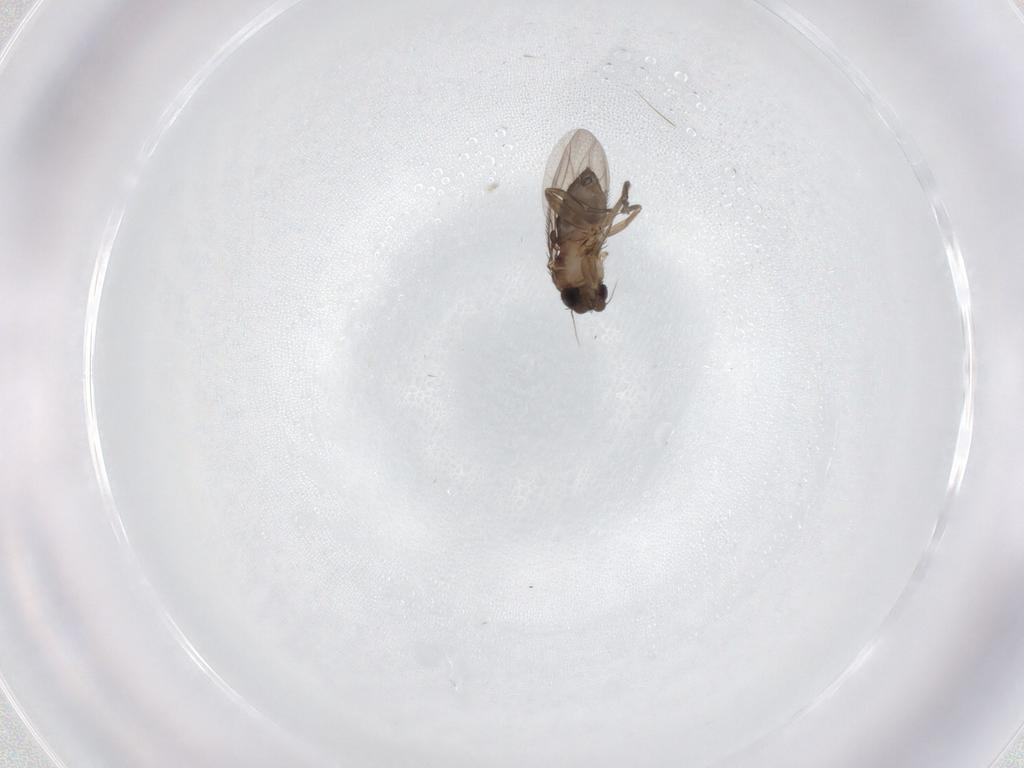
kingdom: Animalia
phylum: Arthropoda
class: Insecta
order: Diptera
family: Phoridae
